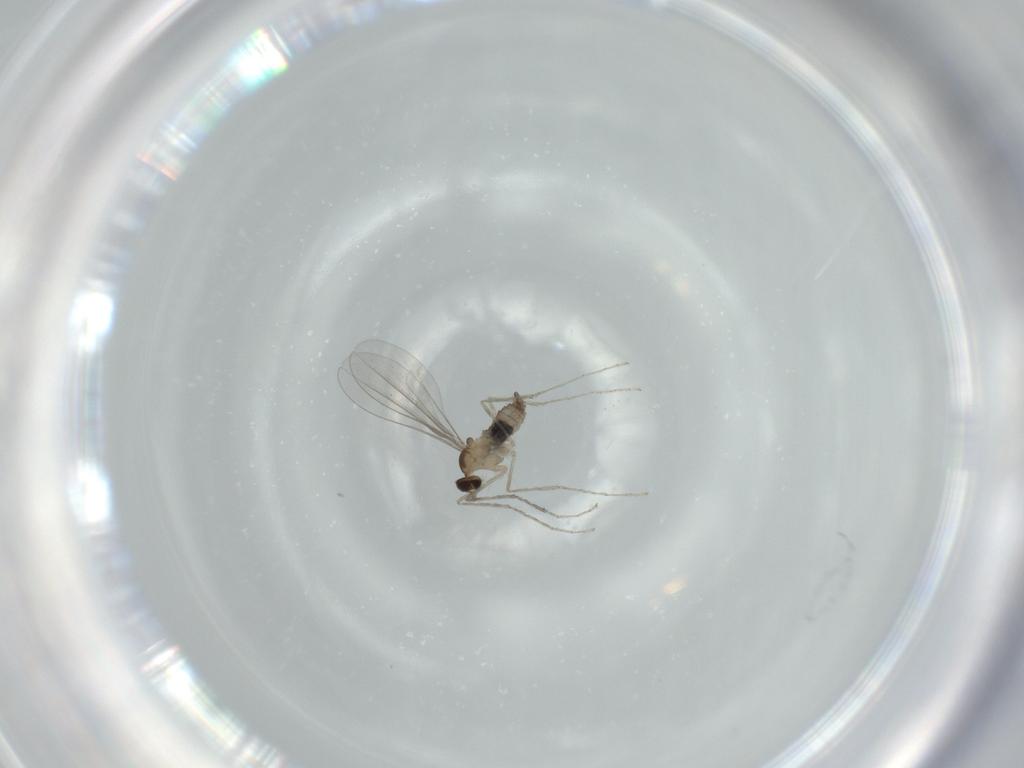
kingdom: Animalia
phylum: Arthropoda
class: Insecta
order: Diptera
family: Cecidomyiidae
